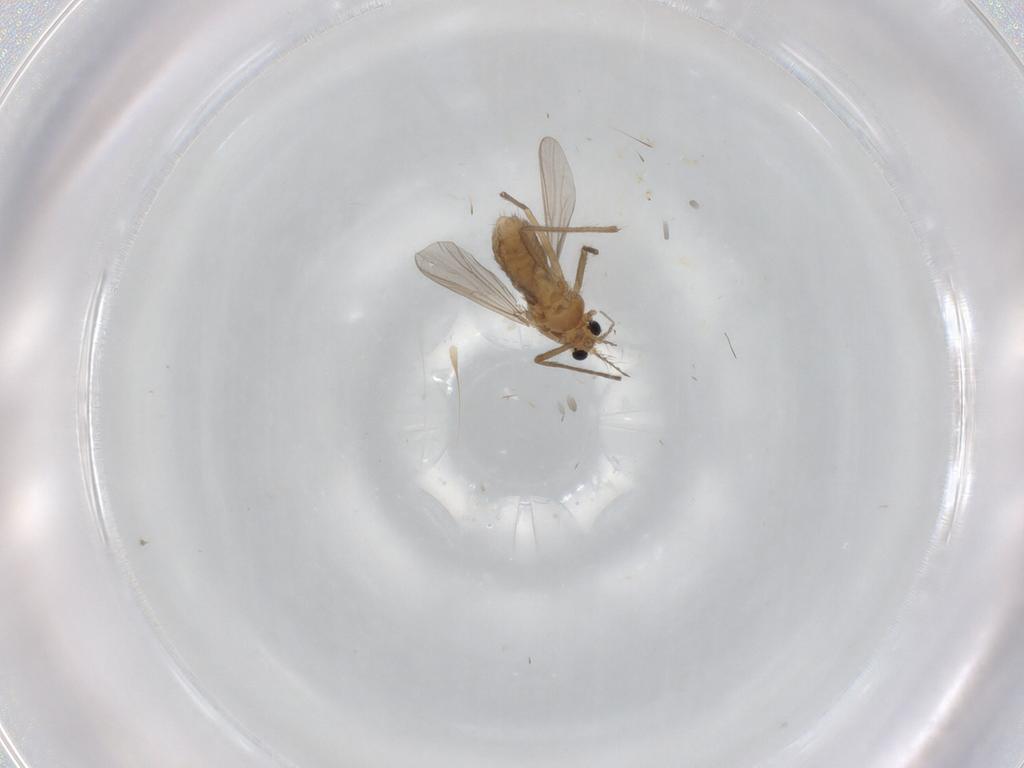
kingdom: Animalia
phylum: Arthropoda
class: Insecta
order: Diptera
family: Chironomidae
